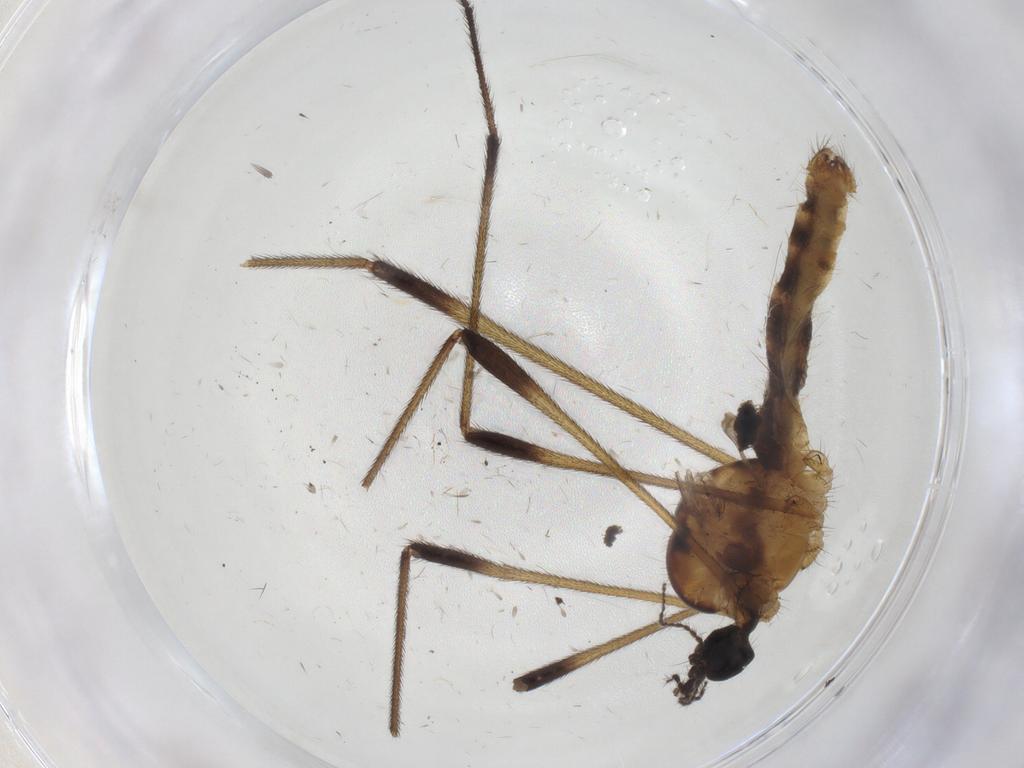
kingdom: Animalia
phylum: Arthropoda
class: Insecta
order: Diptera
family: Limoniidae
